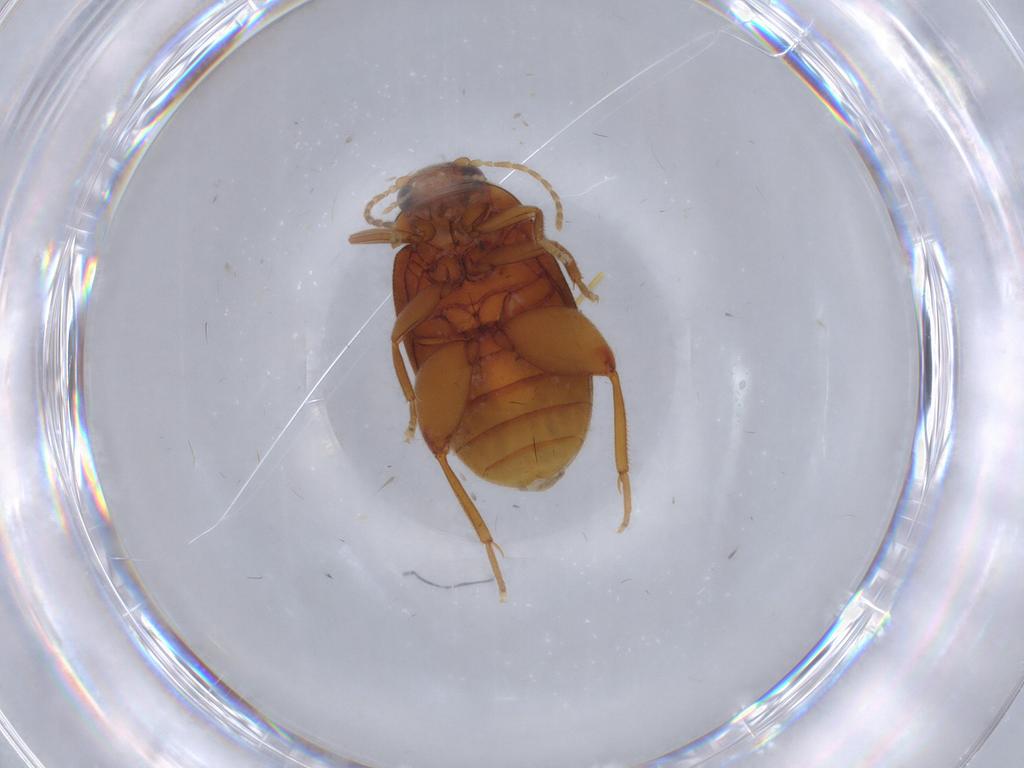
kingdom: Animalia
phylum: Arthropoda
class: Insecta
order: Coleoptera
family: Scirtidae
